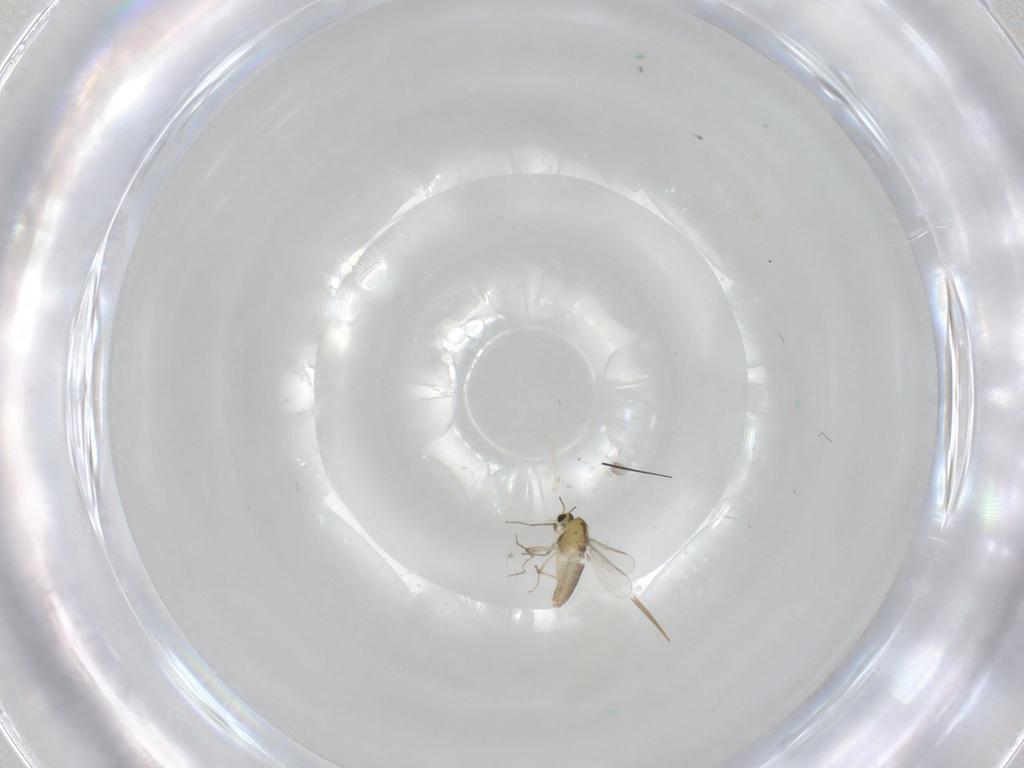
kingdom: Animalia
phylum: Arthropoda
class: Insecta
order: Diptera
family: Chironomidae
